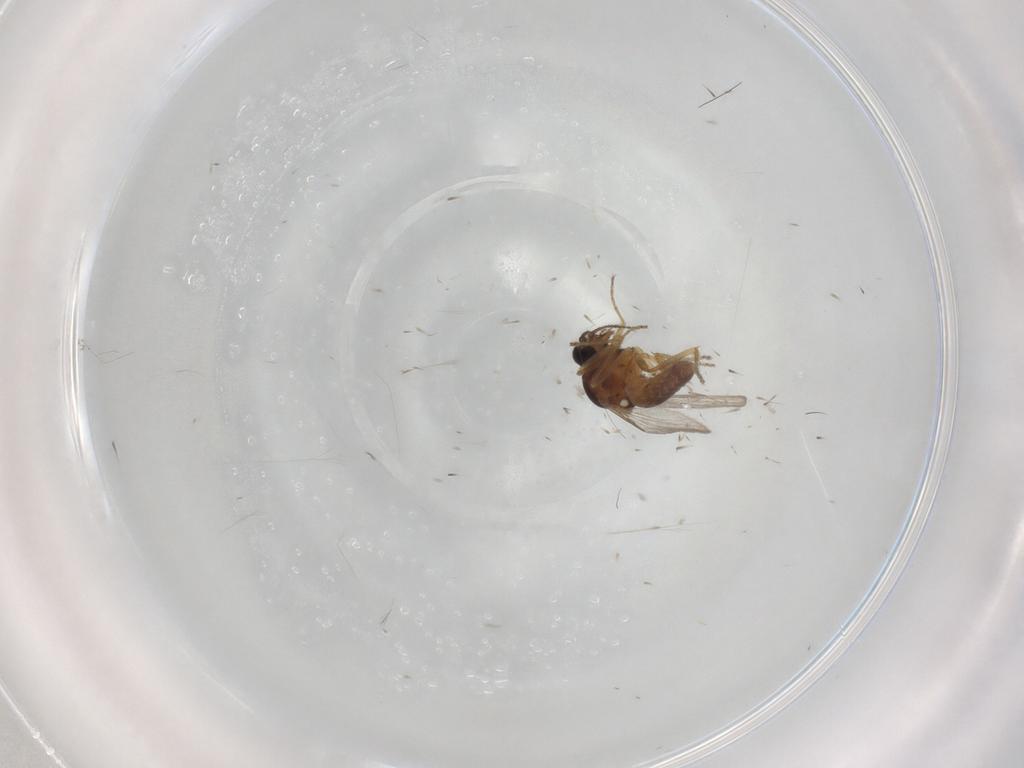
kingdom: Animalia
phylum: Arthropoda
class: Insecta
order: Diptera
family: Ceratopogonidae
